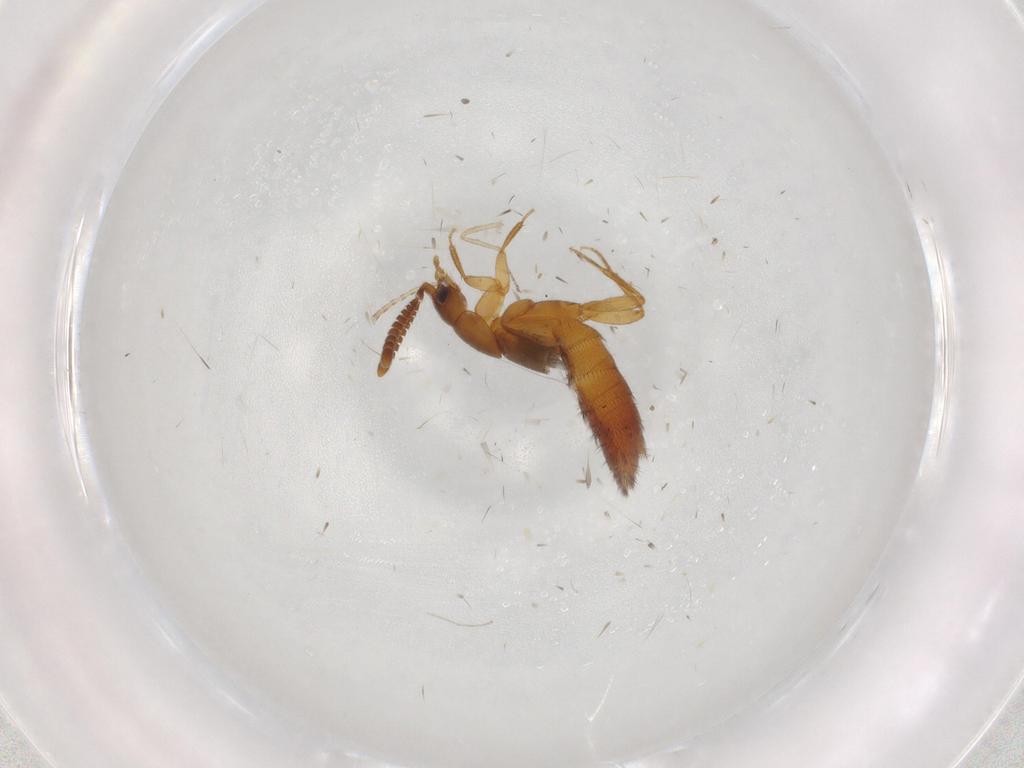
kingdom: Animalia
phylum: Arthropoda
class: Insecta
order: Coleoptera
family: Staphylinidae
